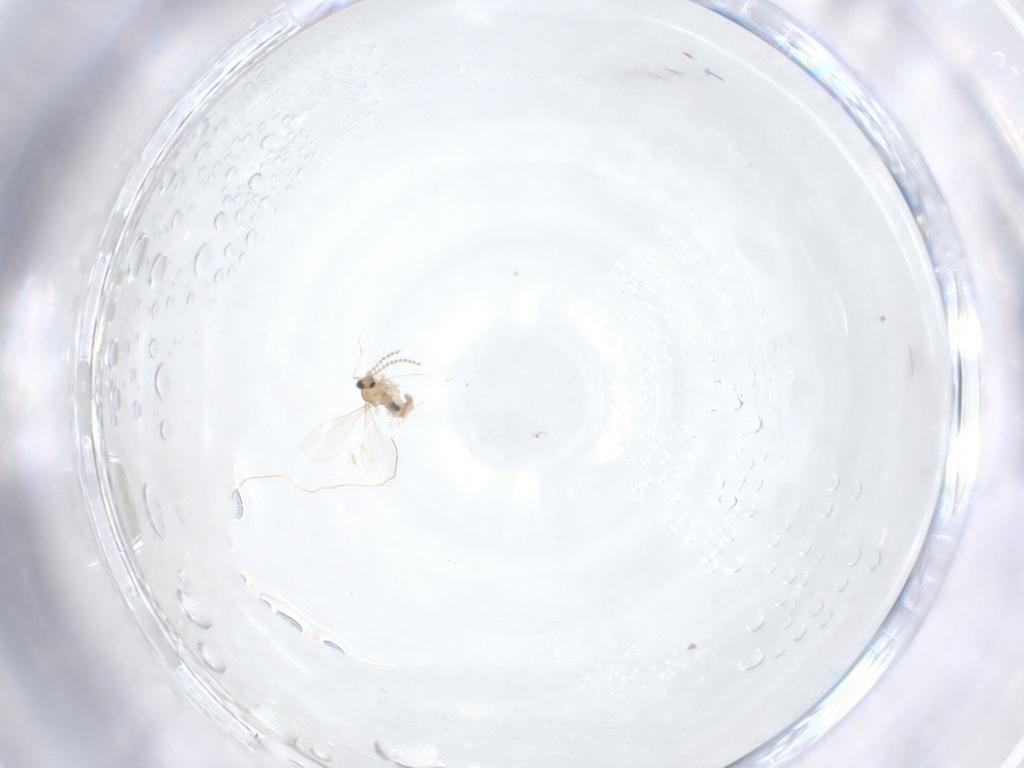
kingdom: Animalia
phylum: Arthropoda
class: Insecta
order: Diptera
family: Cecidomyiidae
